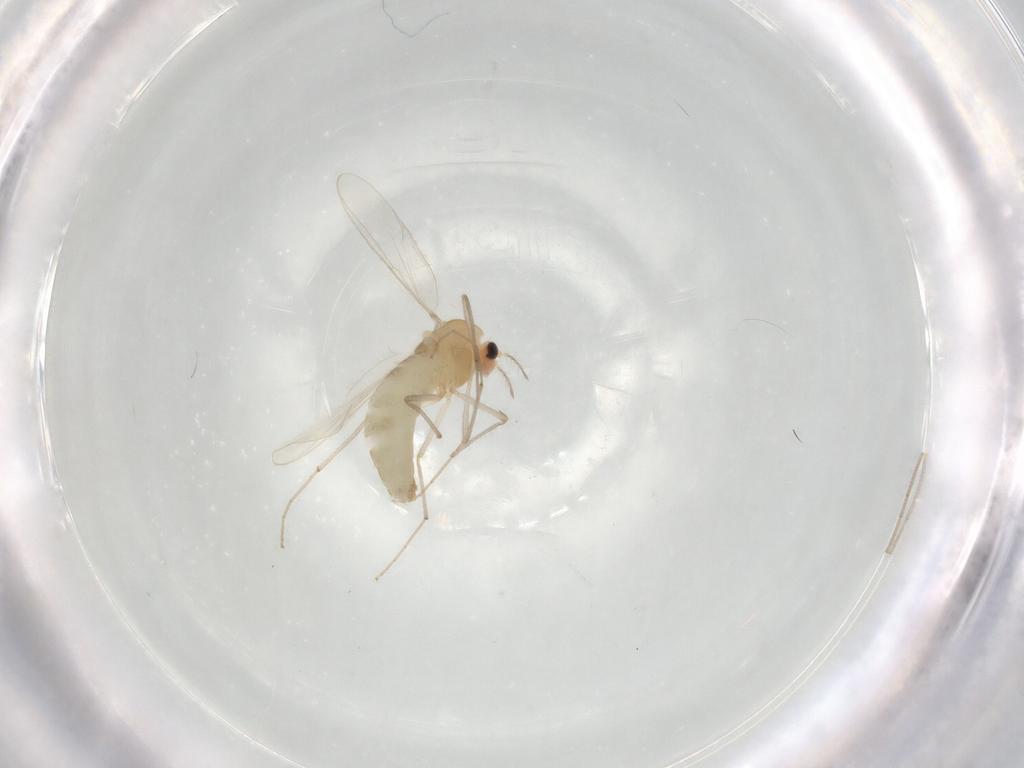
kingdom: Animalia
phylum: Arthropoda
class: Insecta
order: Diptera
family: Chironomidae
